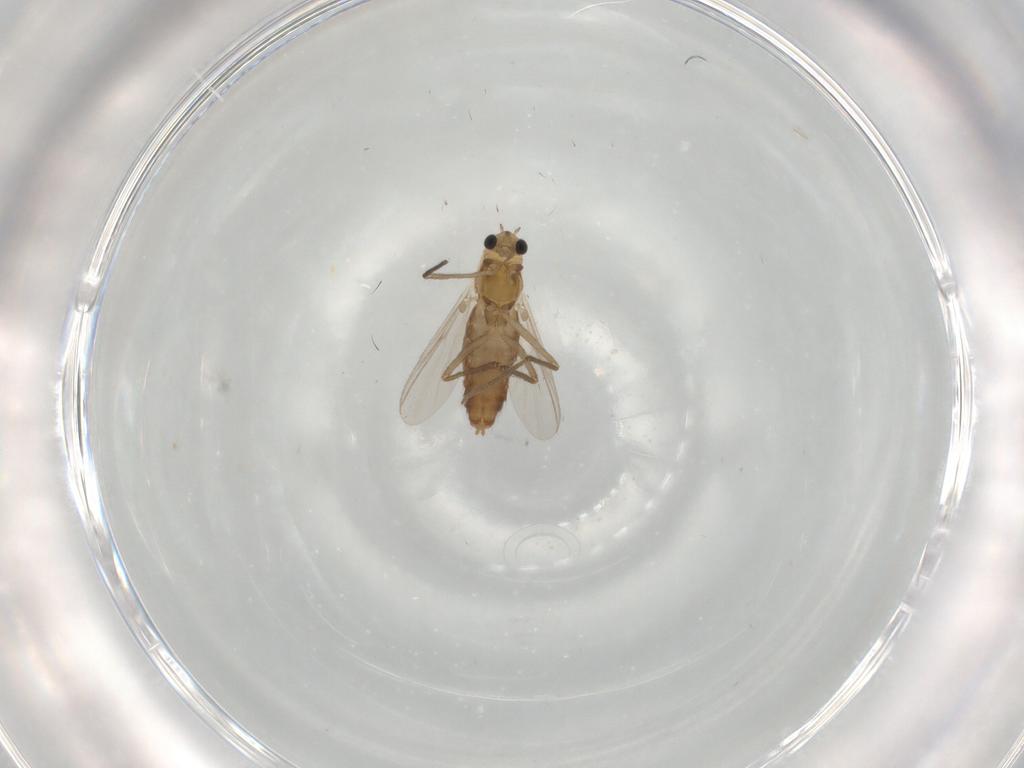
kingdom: Animalia
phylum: Arthropoda
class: Insecta
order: Diptera
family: Chironomidae
